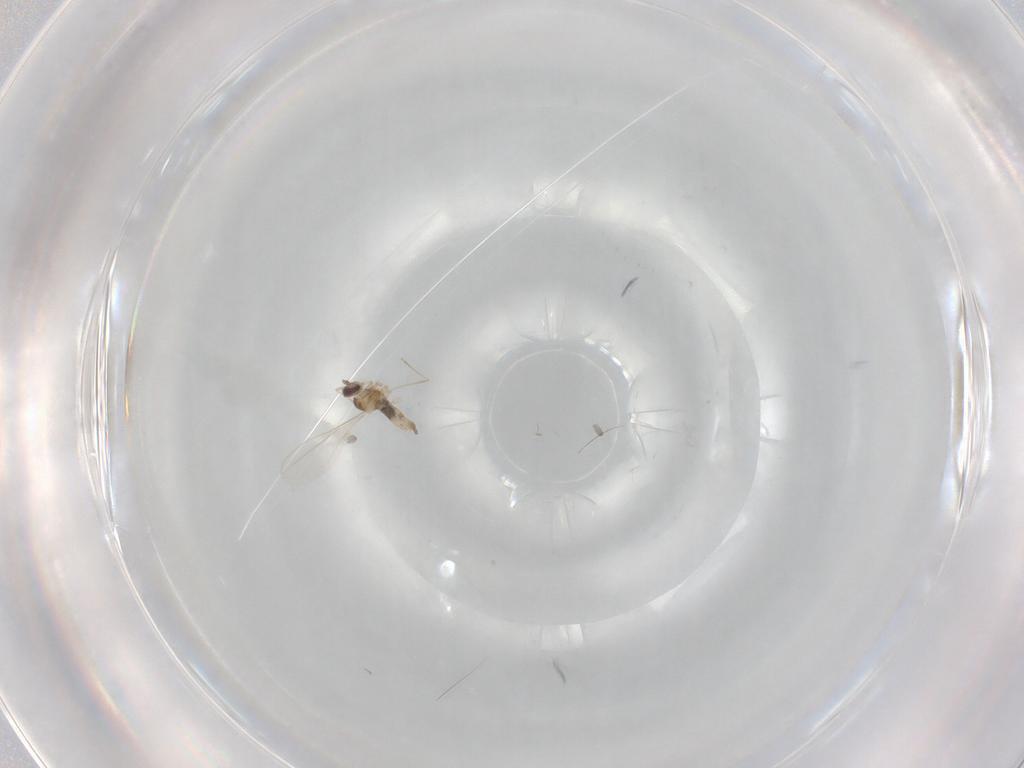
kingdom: Animalia
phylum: Arthropoda
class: Insecta
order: Diptera
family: Cecidomyiidae
